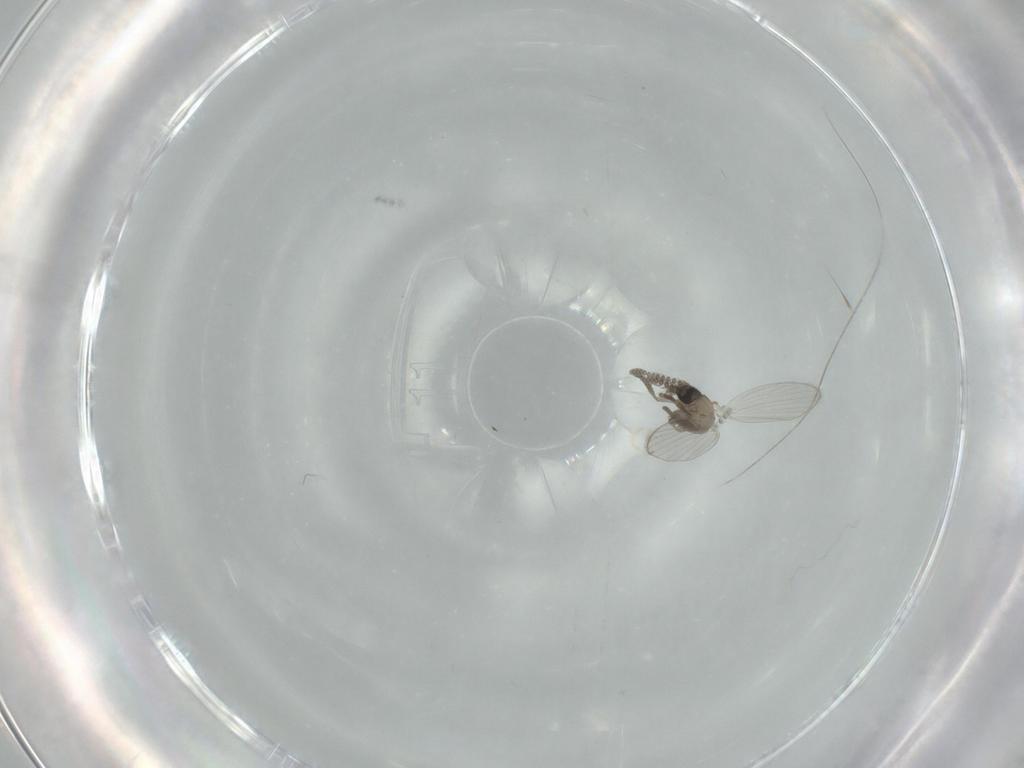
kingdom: Animalia
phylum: Arthropoda
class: Insecta
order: Diptera
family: Psychodidae
